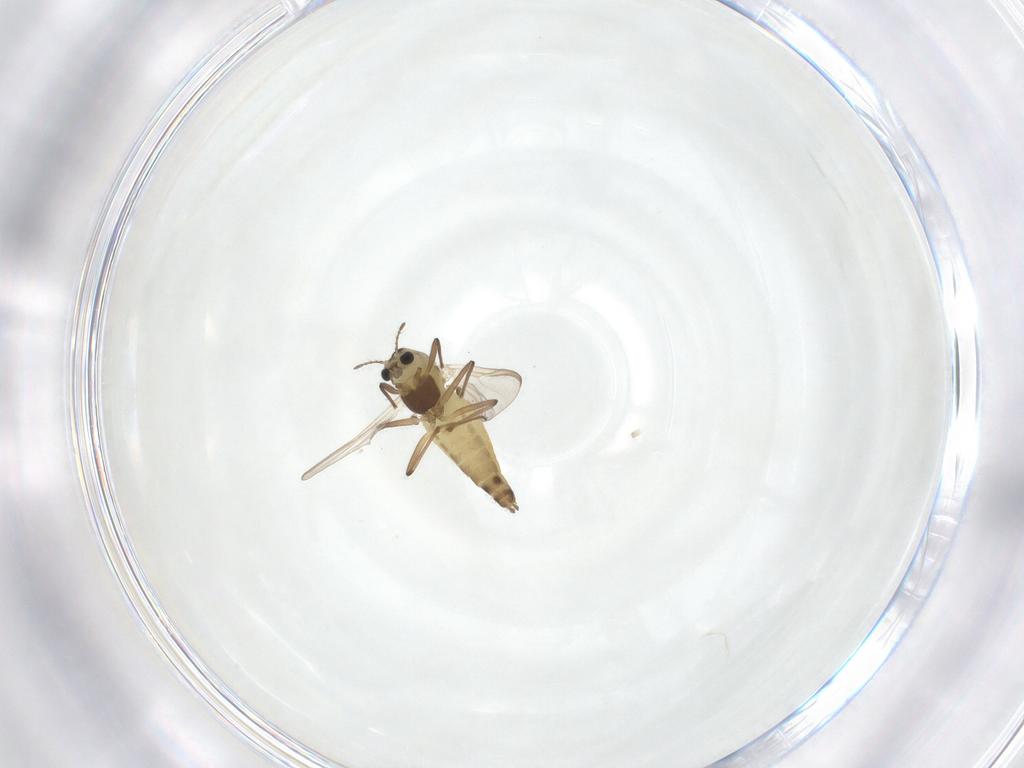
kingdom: Animalia
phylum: Arthropoda
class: Insecta
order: Diptera
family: Chironomidae
